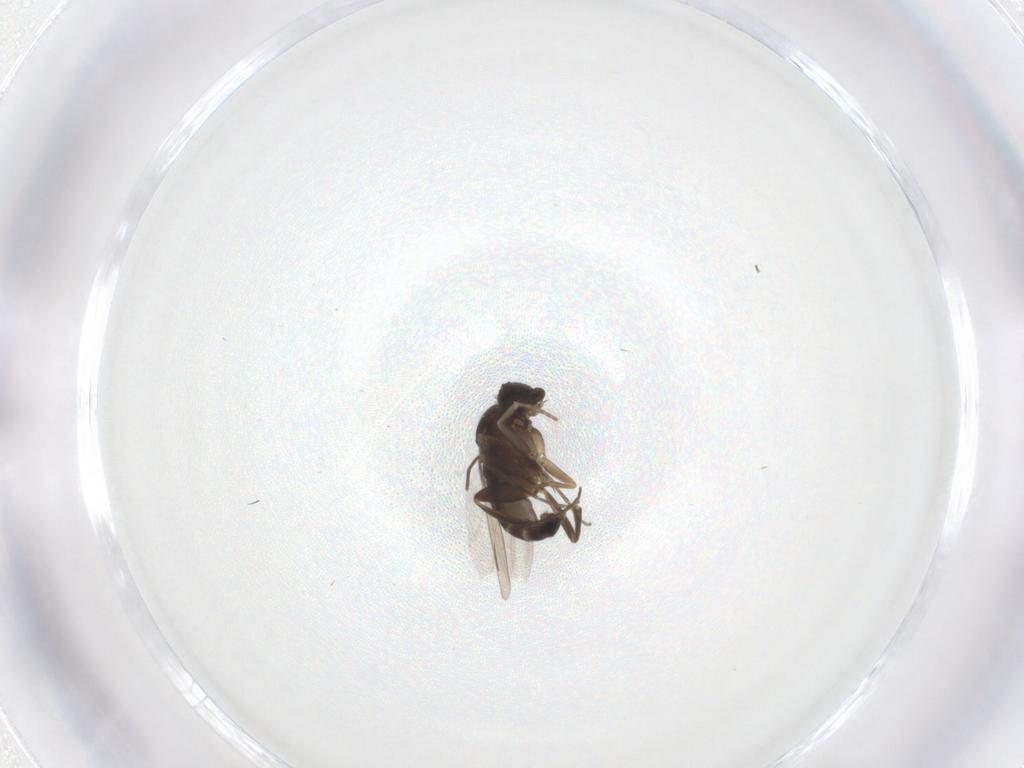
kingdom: Animalia
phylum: Arthropoda
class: Insecta
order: Diptera
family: Phoridae
